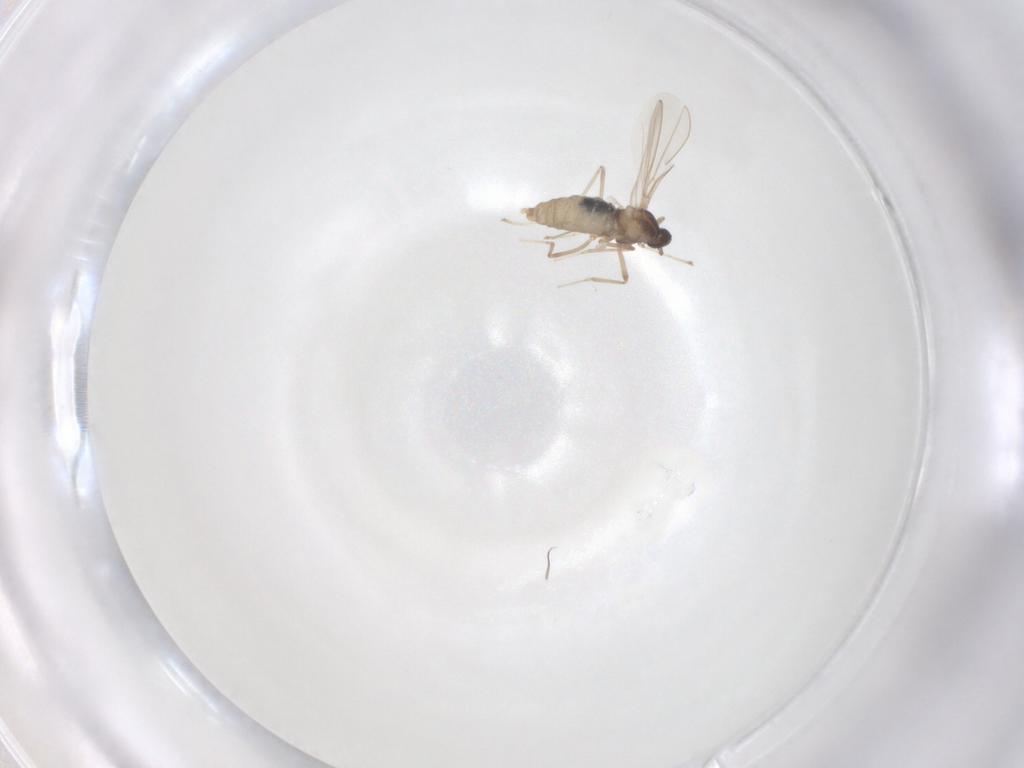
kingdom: Animalia
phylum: Arthropoda
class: Insecta
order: Diptera
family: Cecidomyiidae
